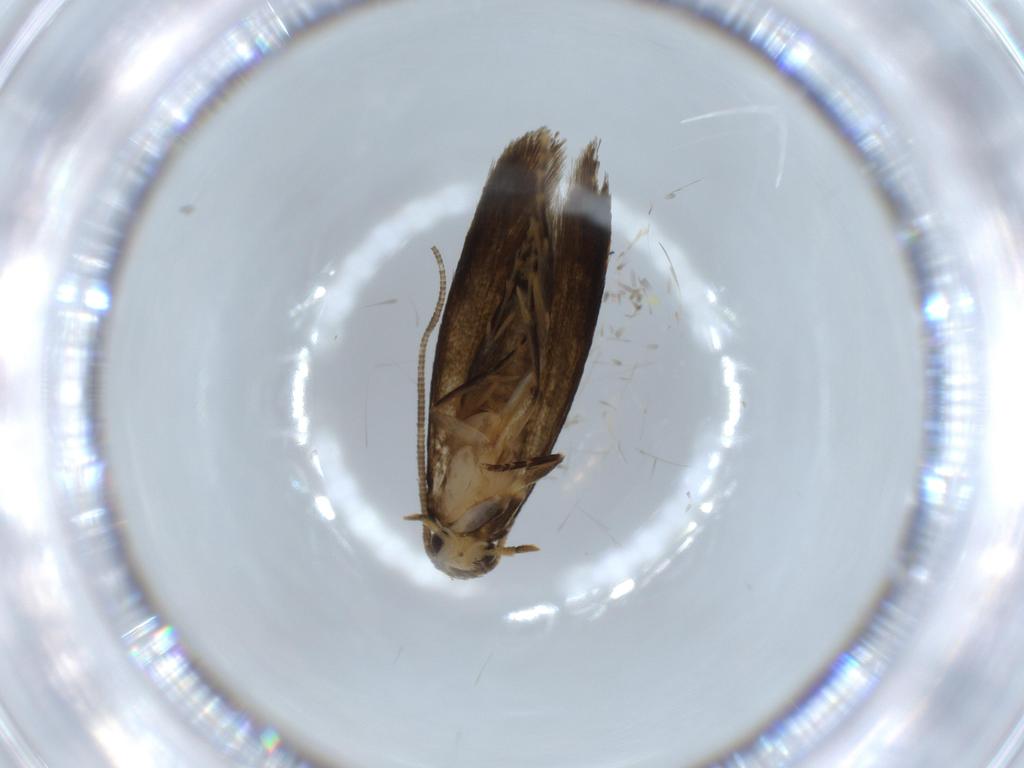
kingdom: Animalia
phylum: Arthropoda
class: Insecta
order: Lepidoptera
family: Tineidae
